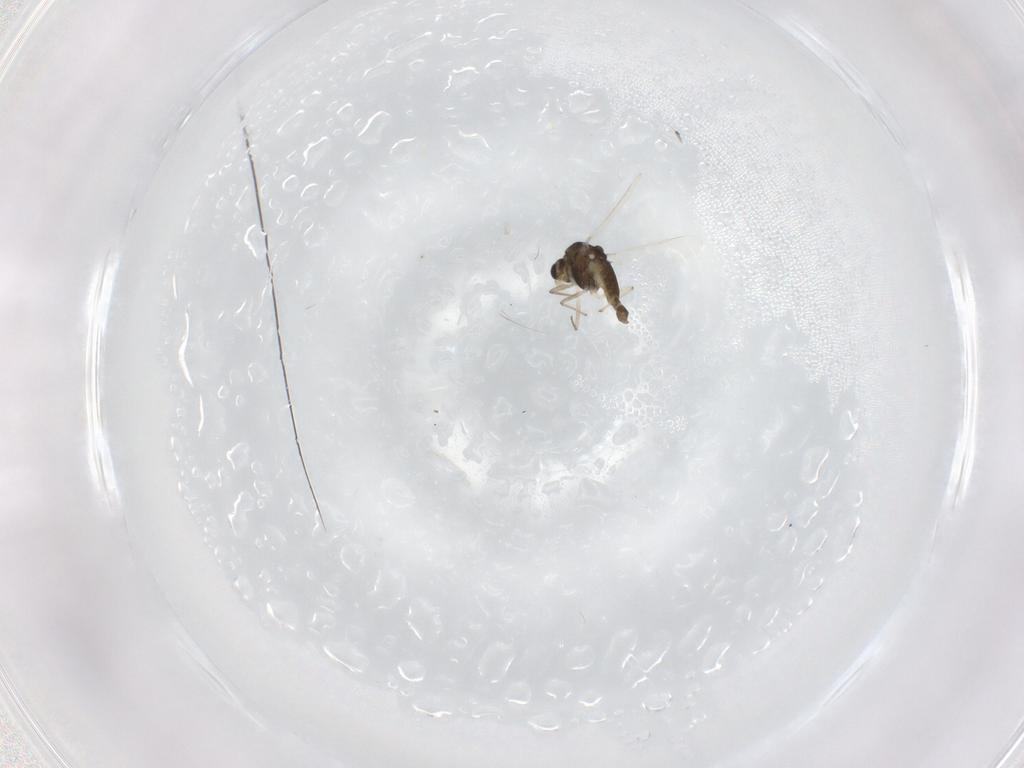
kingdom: Animalia
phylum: Arthropoda
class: Insecta
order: Diptera
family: Chironomidae
